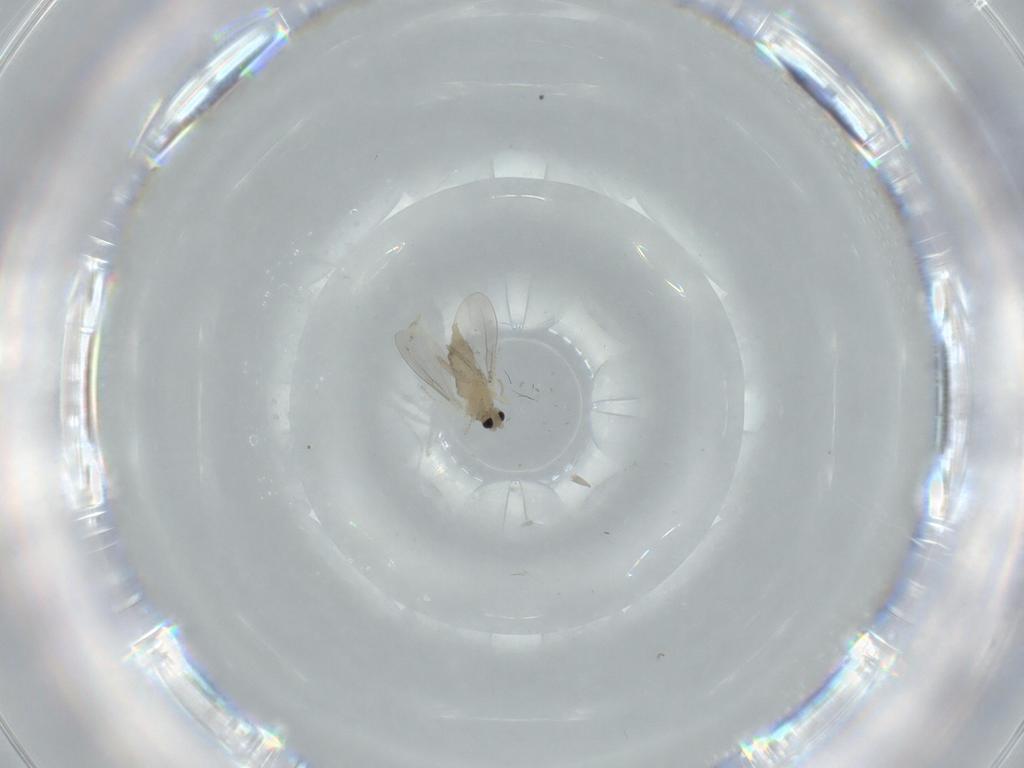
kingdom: Animalia
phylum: Arthropoda
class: Insecta
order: Diptera
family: Cecidomyiidae
